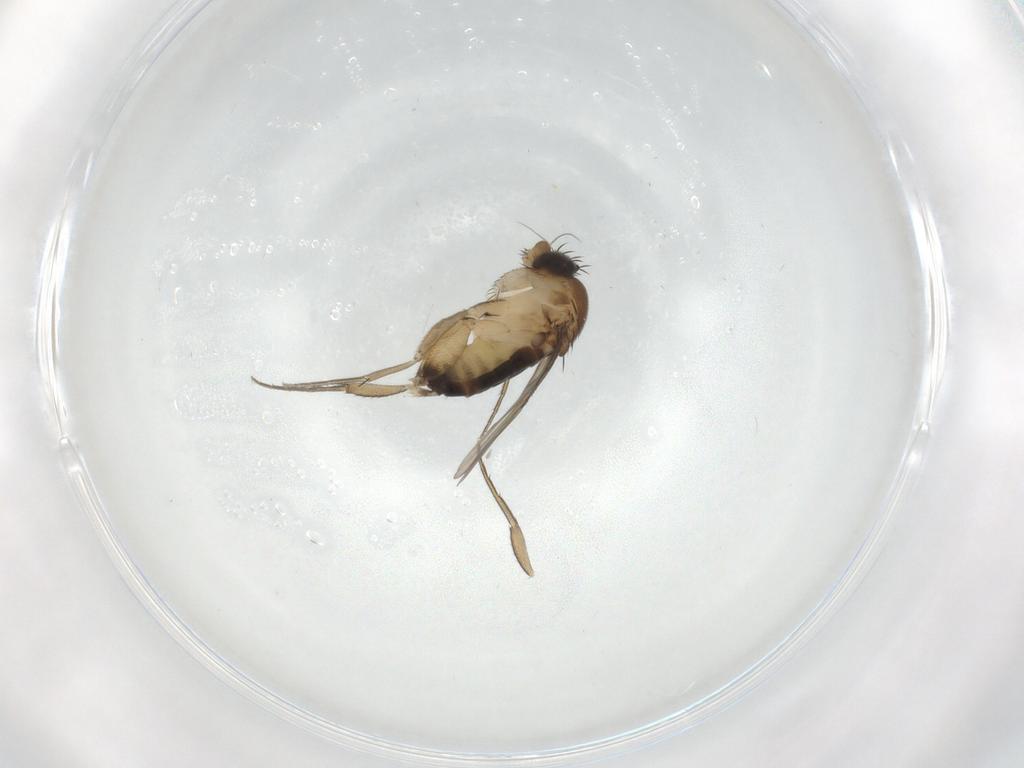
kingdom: Animalia
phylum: Arthropoda
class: Insecta
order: Diptera
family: Phoridae
